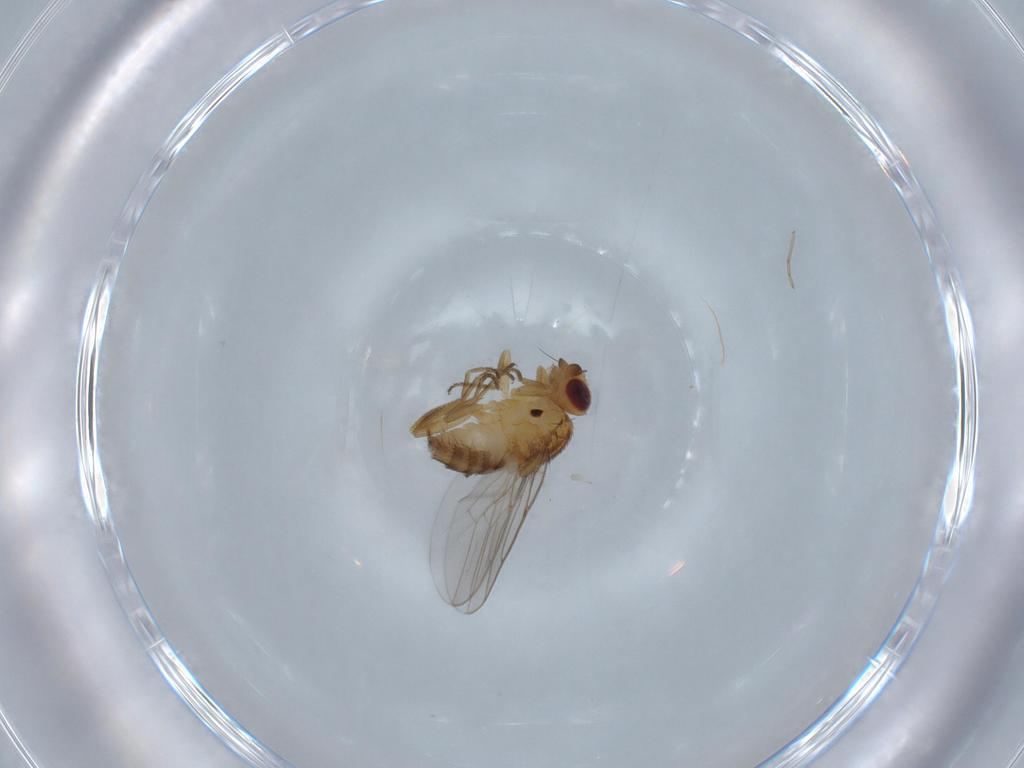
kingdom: Animalia
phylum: Arthropoda
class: Insecta
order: Diptera
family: Chloropidae
